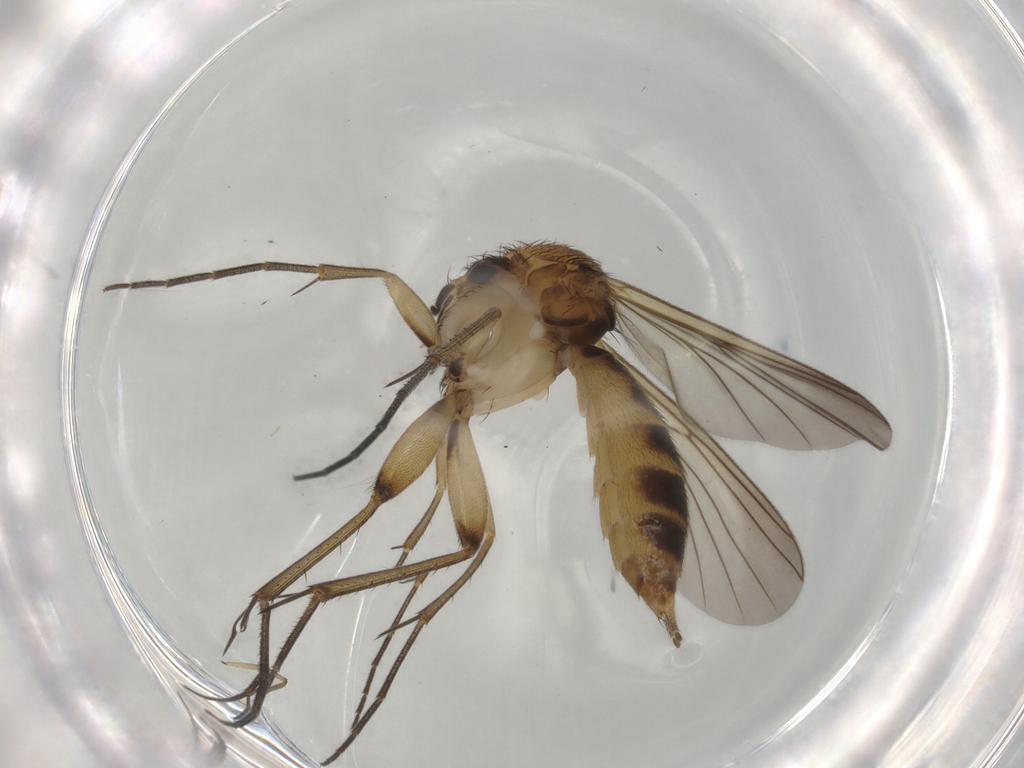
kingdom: Animalia
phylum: Arthropoda
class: Insecta
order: Diptera
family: Mycetophilidae
